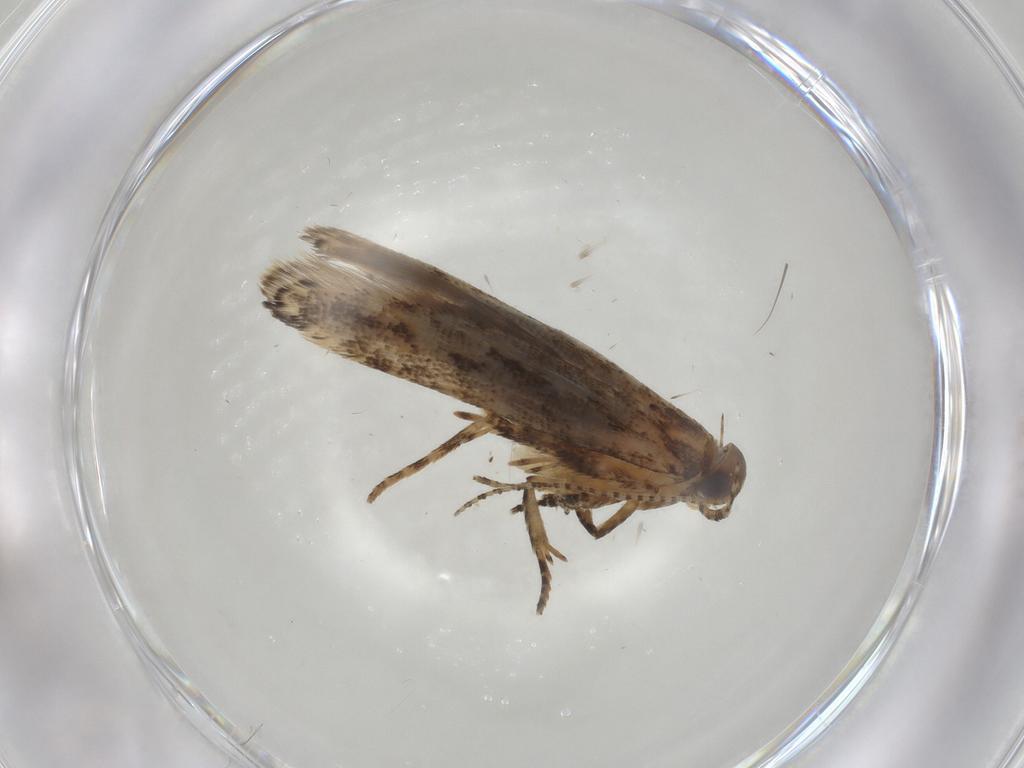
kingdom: Animalia
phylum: Arthropoda
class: Insecta
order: Lepidoptera
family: Gelechiidae
